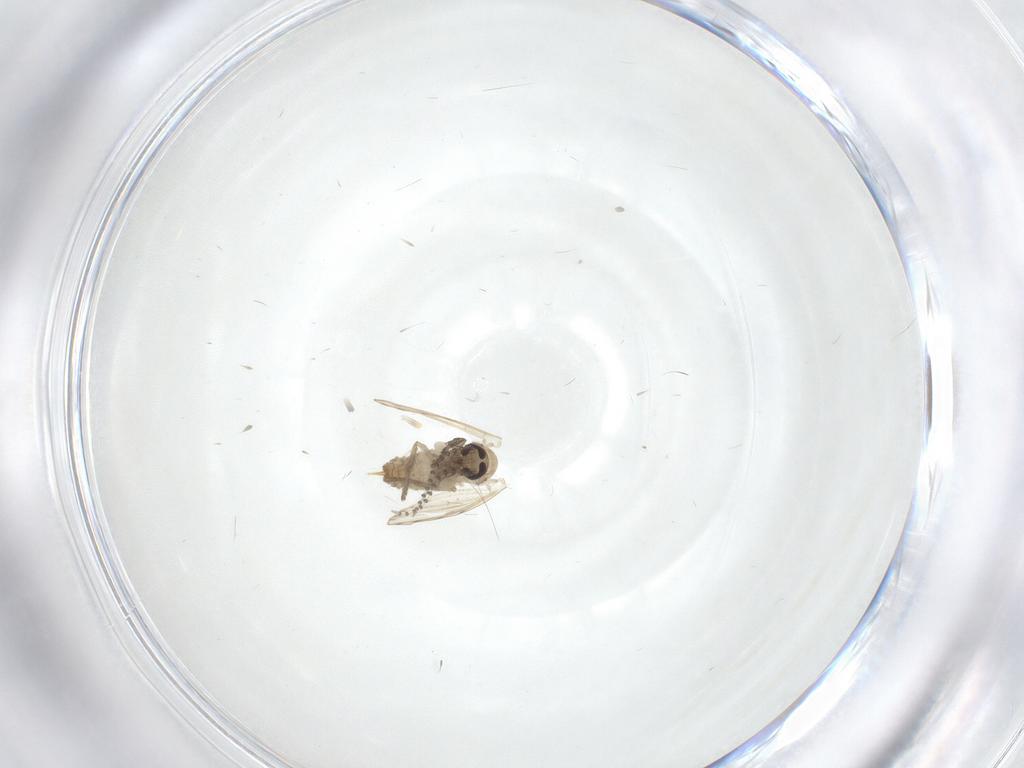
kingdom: Animalia
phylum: Arthropoda
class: Insecta
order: Diptera
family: Psychodidae
